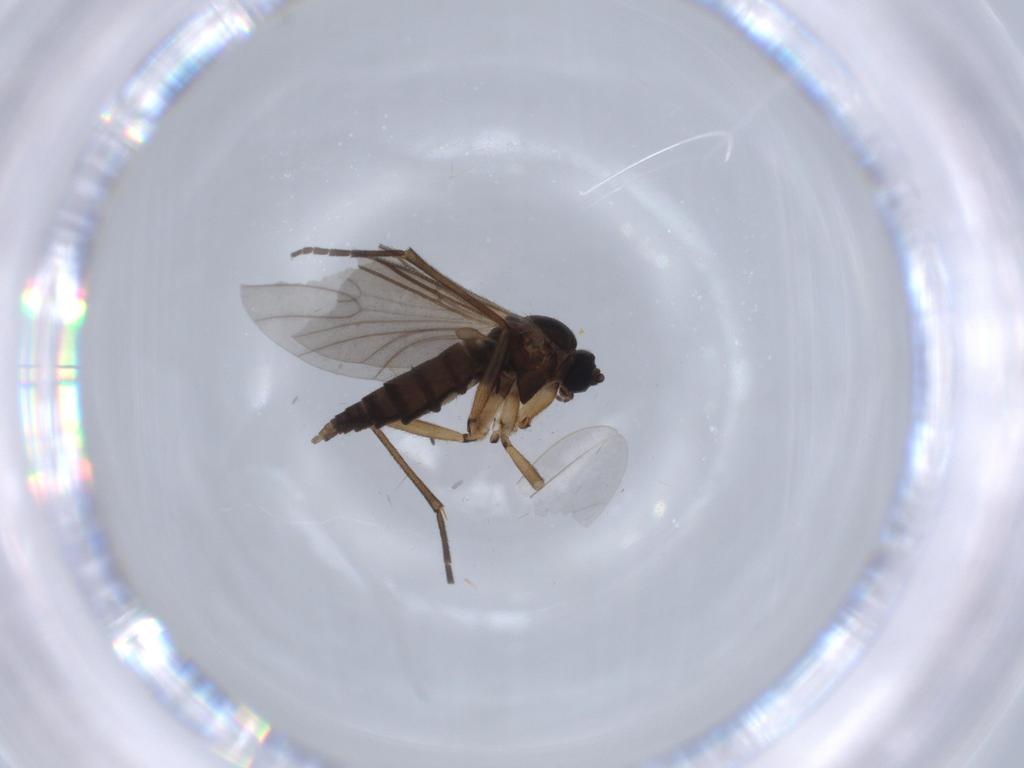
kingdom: Animalia
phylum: Arthropoda
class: Insecta
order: Diptera
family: Sciaridae
